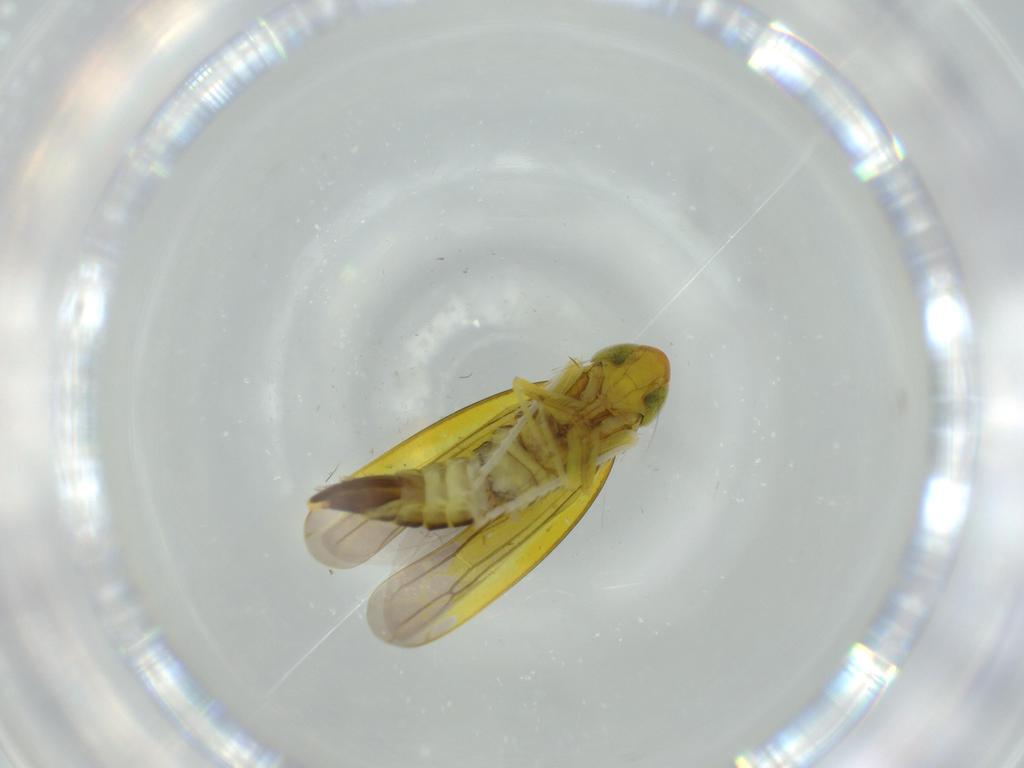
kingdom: Animalia
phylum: Arthropoda
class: Insecta
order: Hemiptera
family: Cicadellidae
